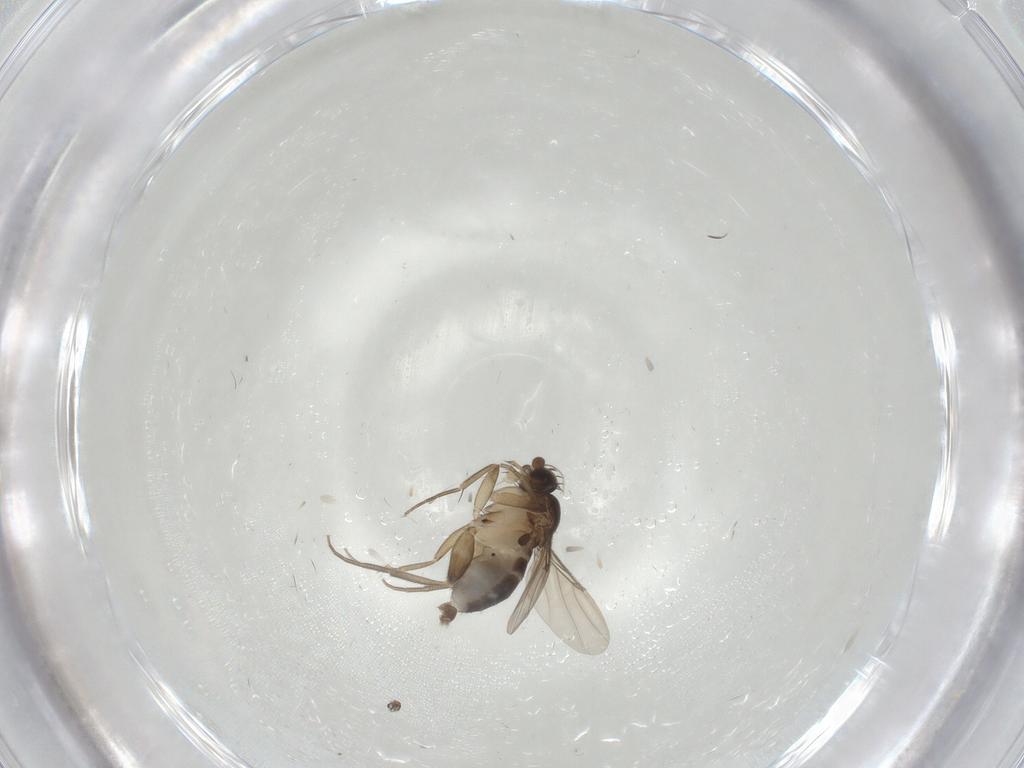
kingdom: Animalia
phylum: Arthropoda
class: Insecta
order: Diptera
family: Phoridae
